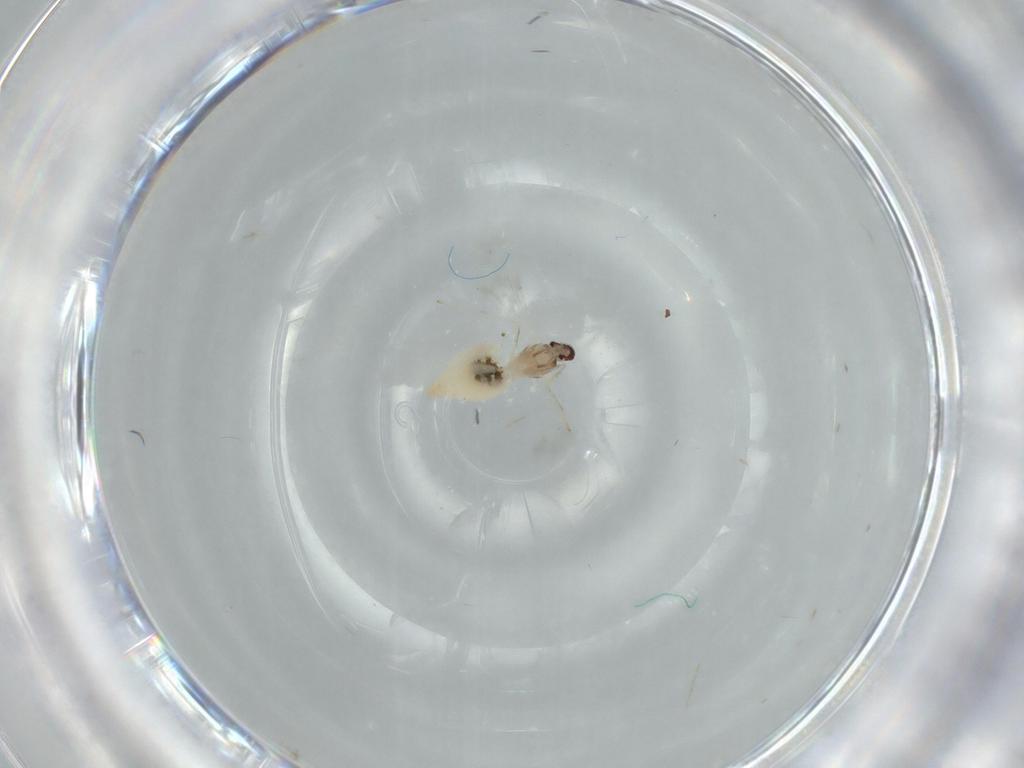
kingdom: Animalia
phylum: Arthropoda
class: Insecta
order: Diptera
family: Cecidomyiidae
